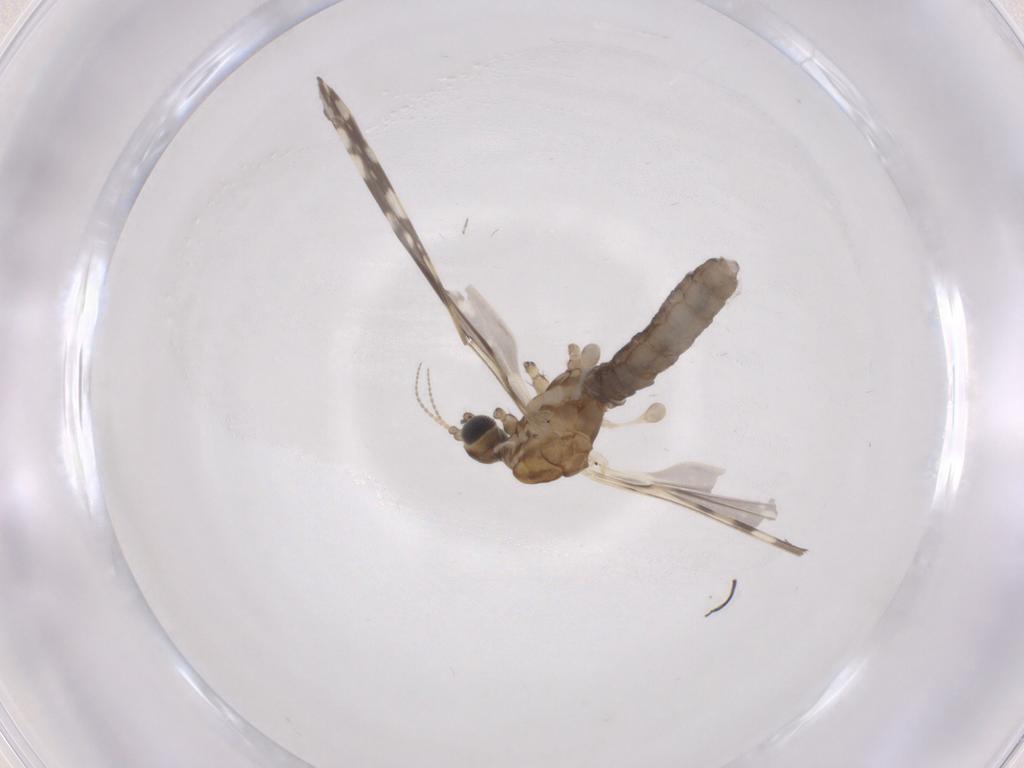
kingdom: Animalia
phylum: Arthropoda
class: Insecta
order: Diptera
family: Limoniidae
